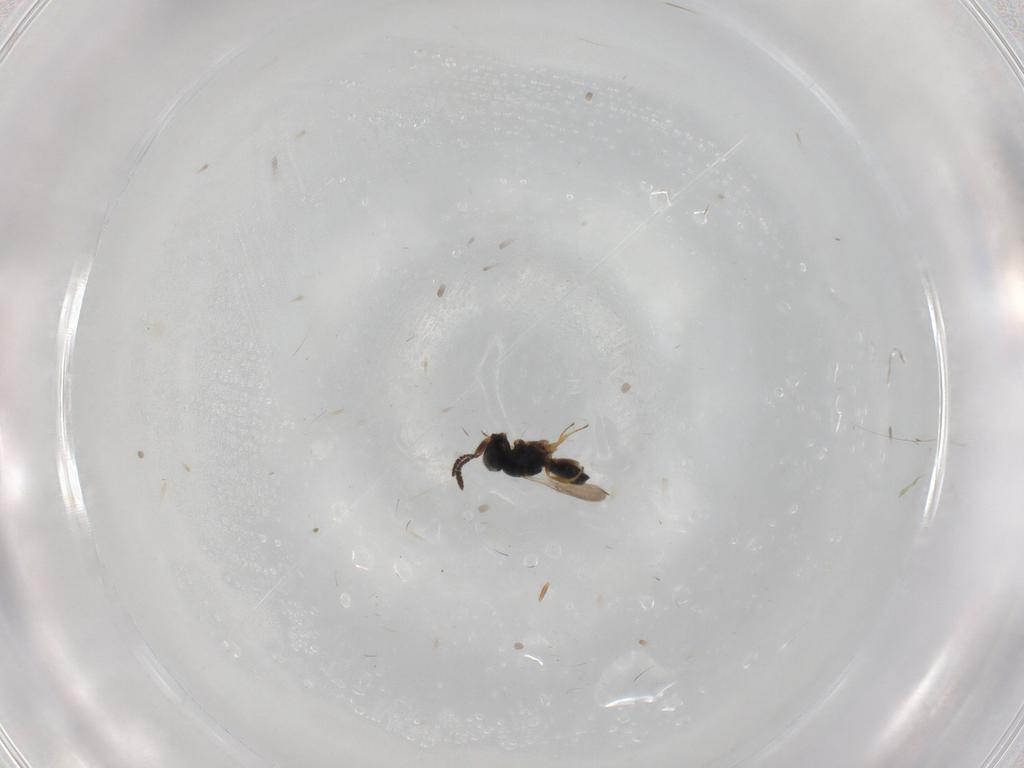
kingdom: Animalia
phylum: Arthropoda
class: Insecta
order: Hymenoptera
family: Scelionidae
